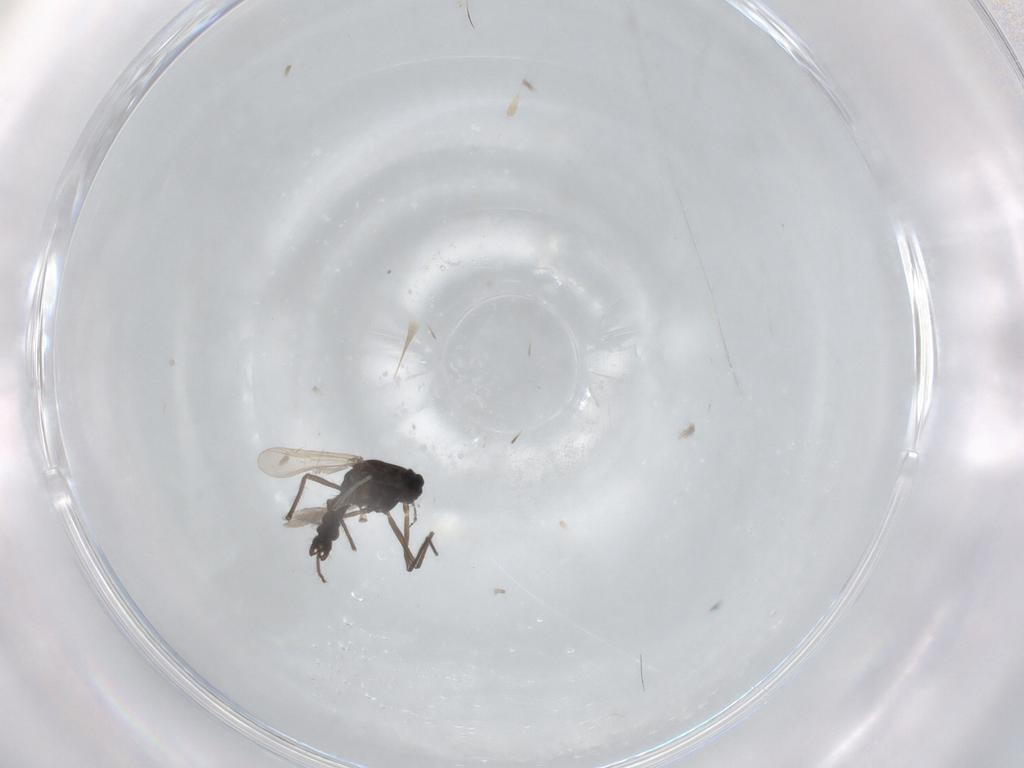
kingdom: Animalia
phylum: Arthropoda
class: Insecta
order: Diptera
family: Chironomidae
